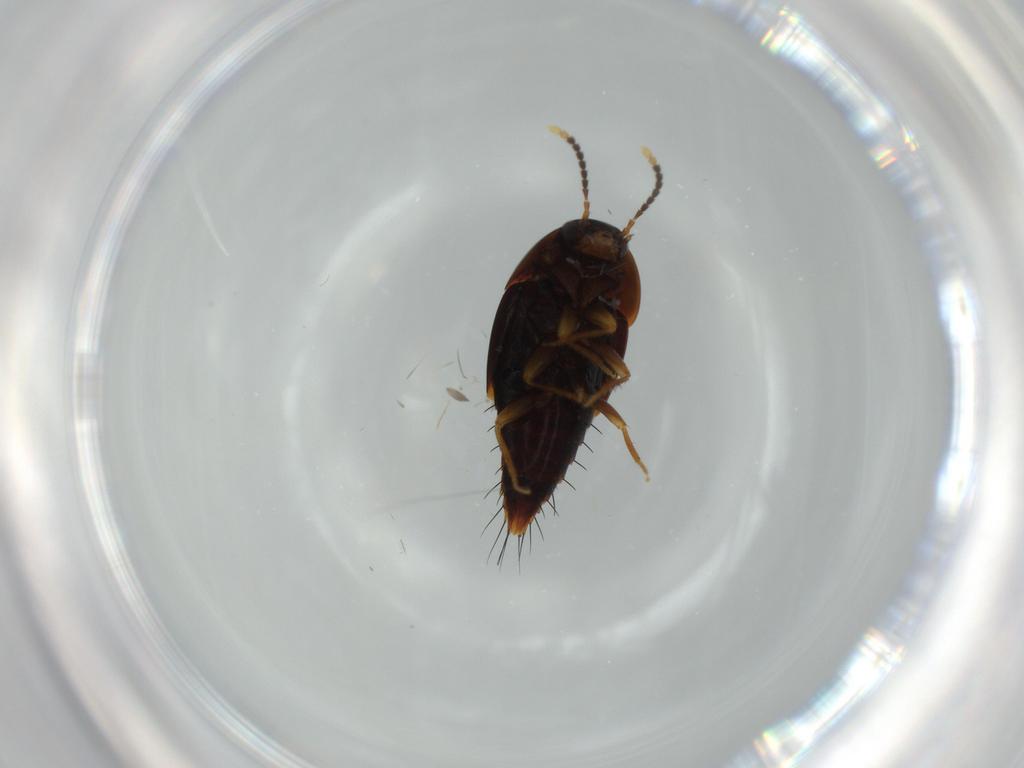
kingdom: Animalia
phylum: Arthropoda
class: Insecta
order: Coleoptera
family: Staphylinidae
